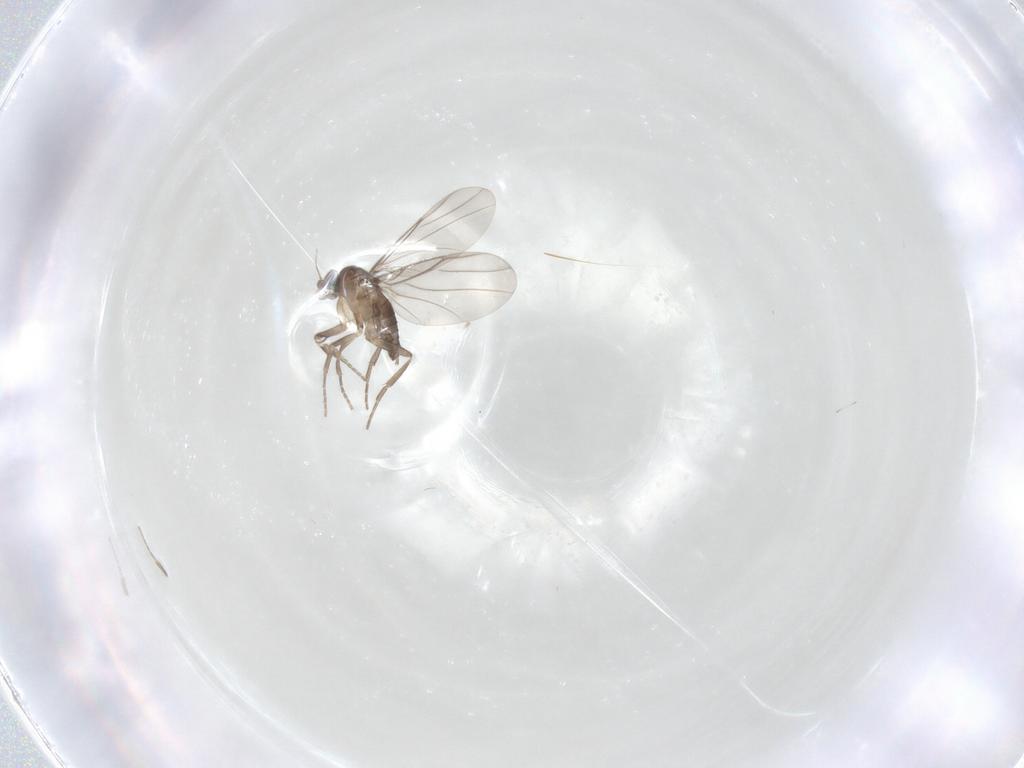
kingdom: Animalia
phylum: Arthropoda
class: Insecta
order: Diptera
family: Phoridae
